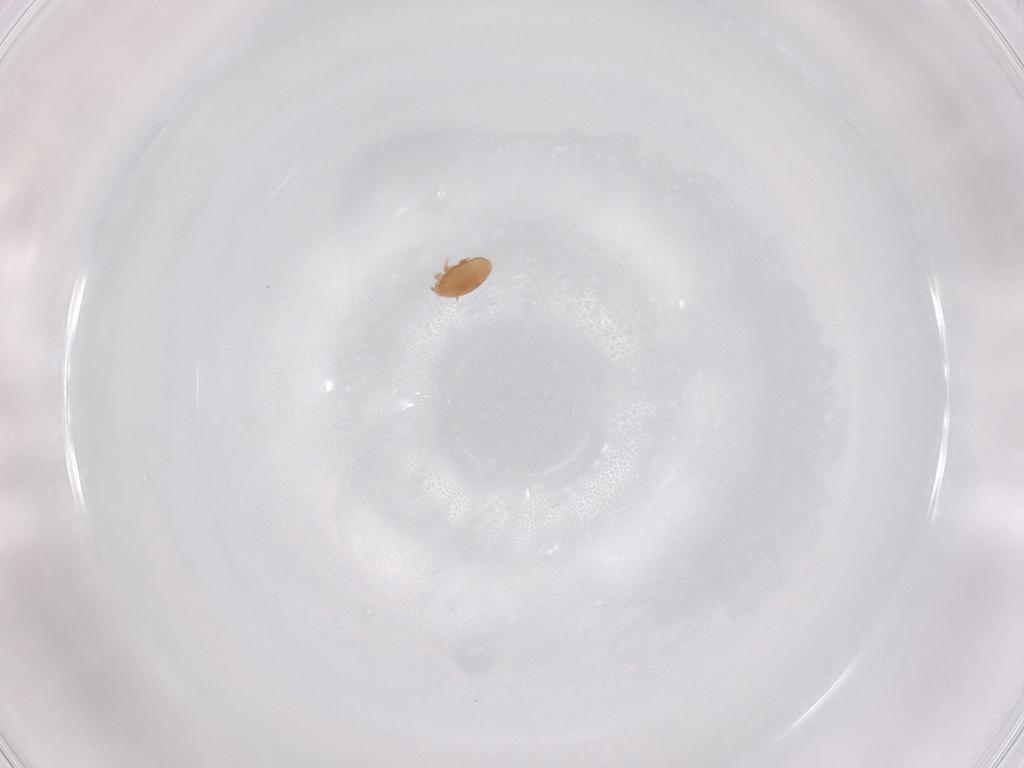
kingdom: Animalia
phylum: Arthropoda
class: Arachnida
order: Mesostigmata
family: Trematuridae
